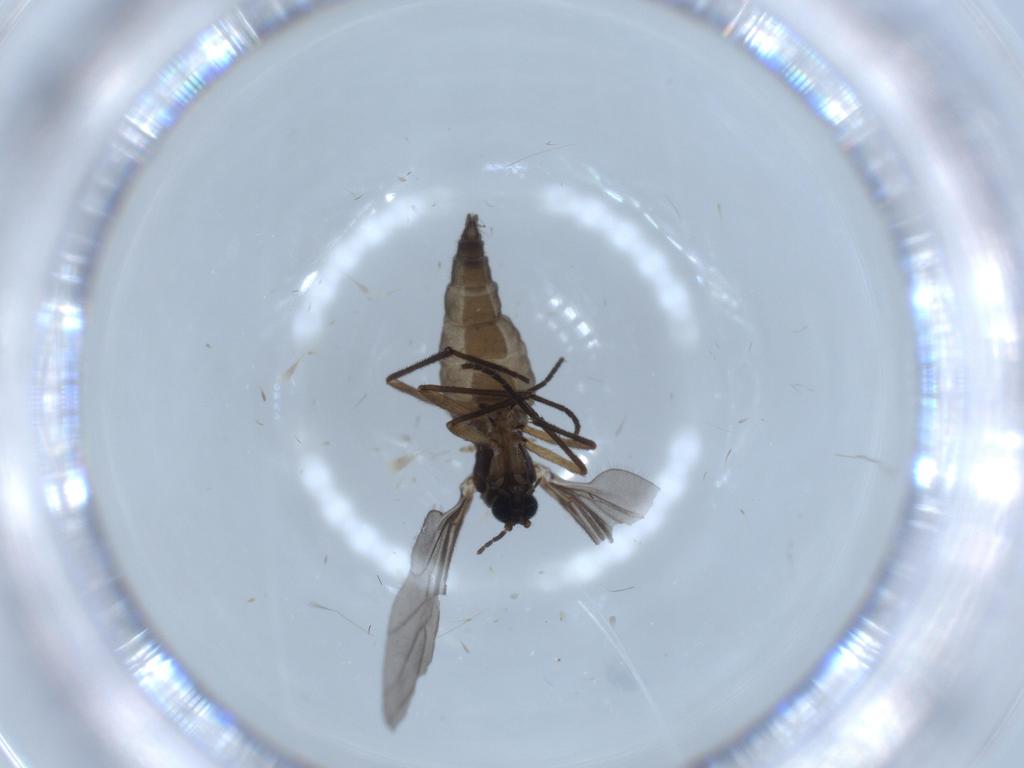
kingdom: Animalia
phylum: Arthropoda
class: Insecta
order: Diptera
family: Sciaridae
